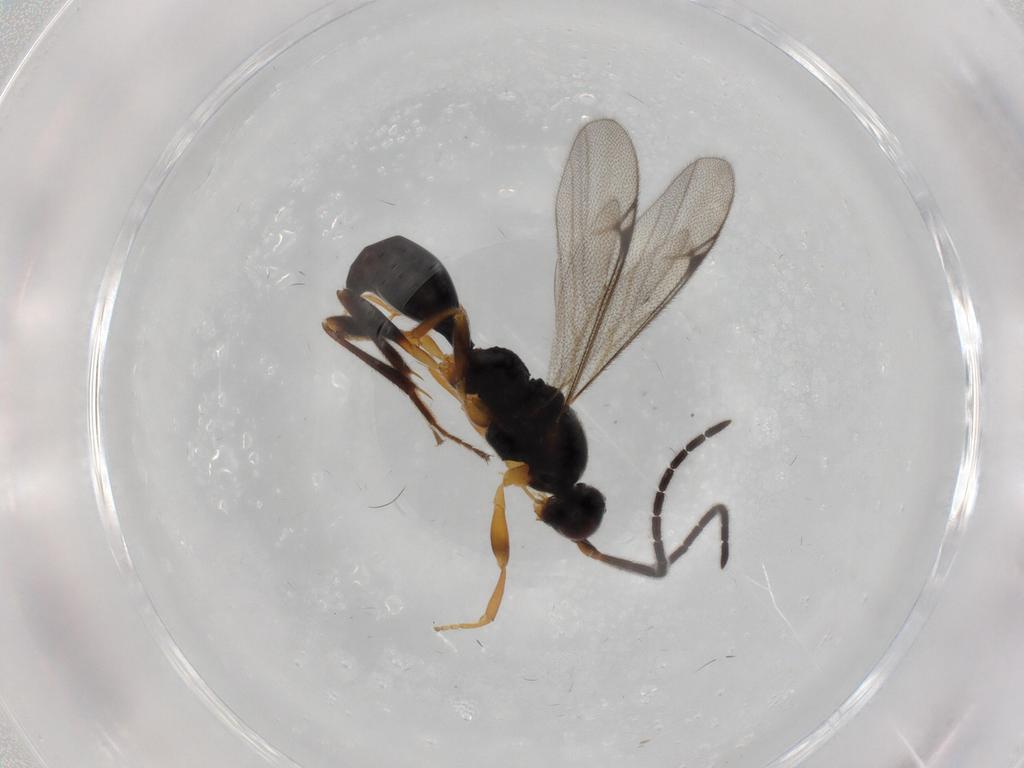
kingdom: Animalia
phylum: Arthropoda
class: Insecta
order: Hymenoptera
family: Proctotrupidae
